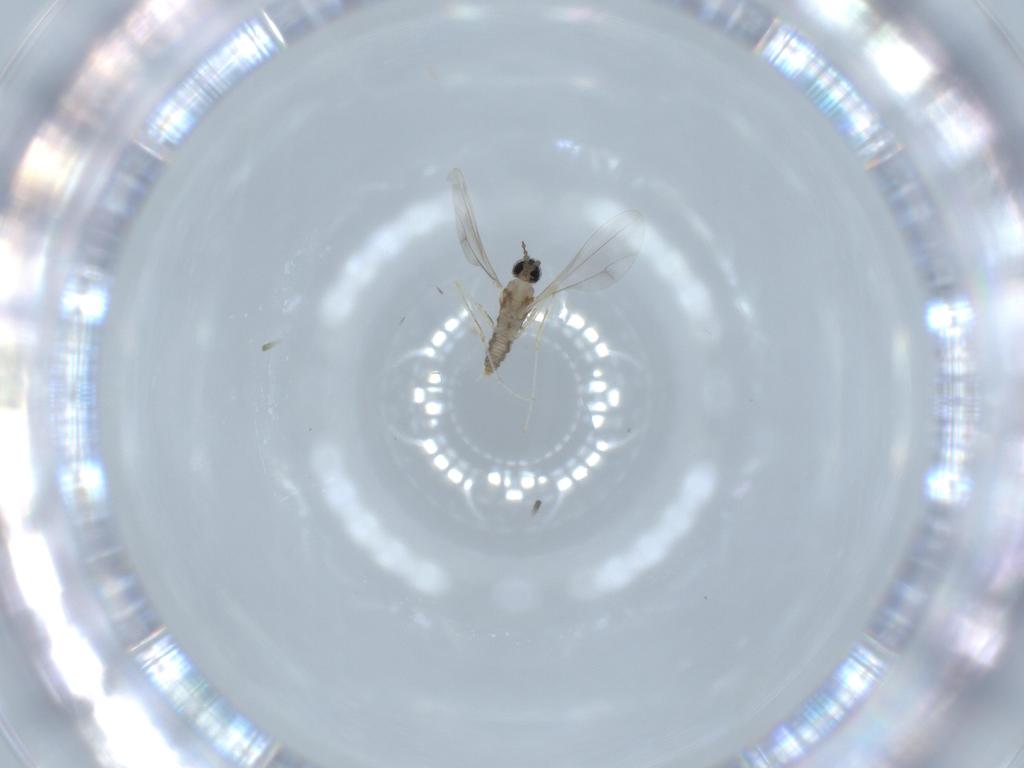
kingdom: Animalia
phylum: Arthropoda
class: Insecta
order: Diptera
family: Cecidomyiidae
